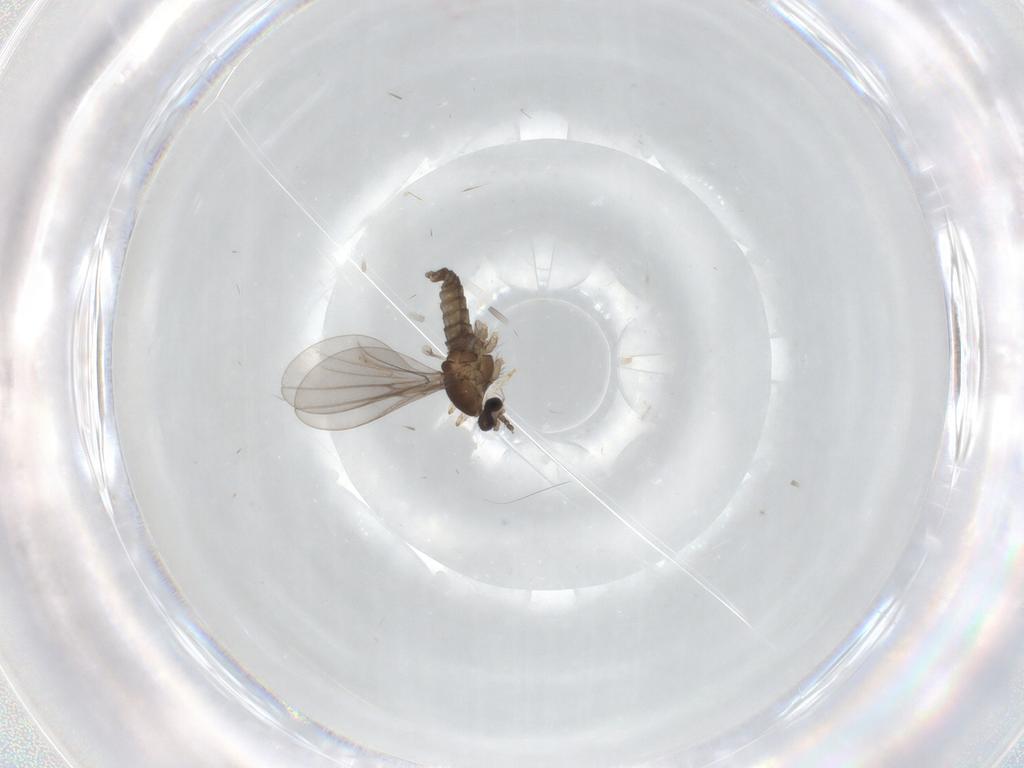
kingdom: Animalia
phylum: Arthropoda
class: Insecta
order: Diptera
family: Cecidomyiidae
